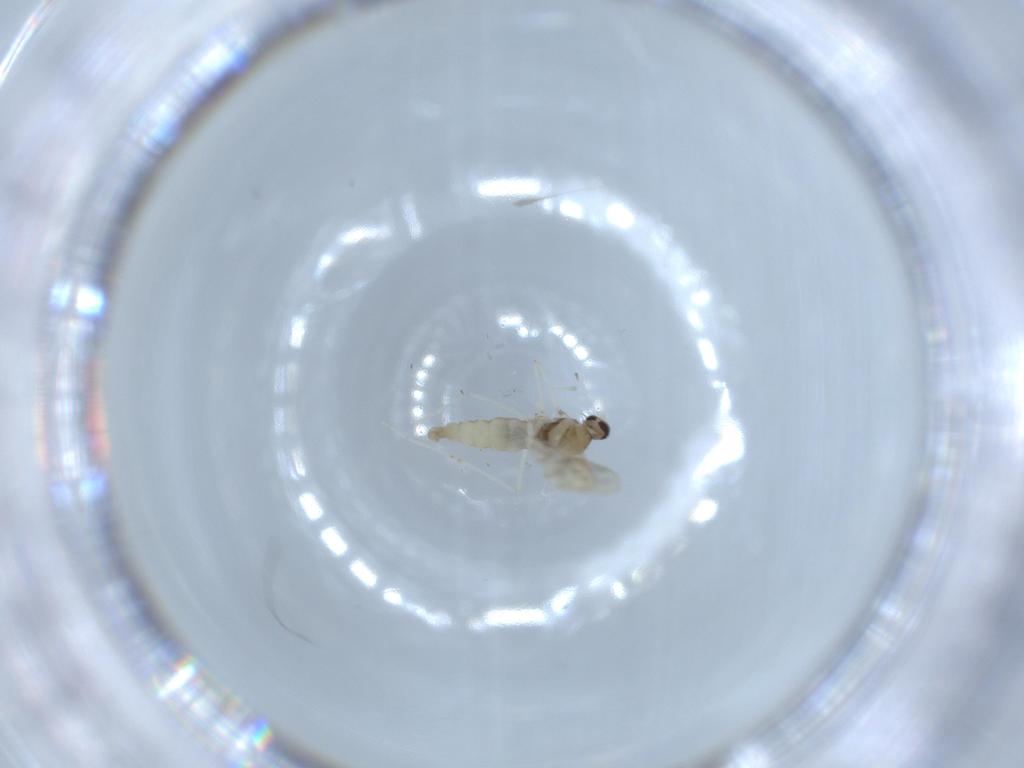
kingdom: Animalia
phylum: Arthropoda
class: Insecta
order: Diptera
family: Cecidomyiidae
